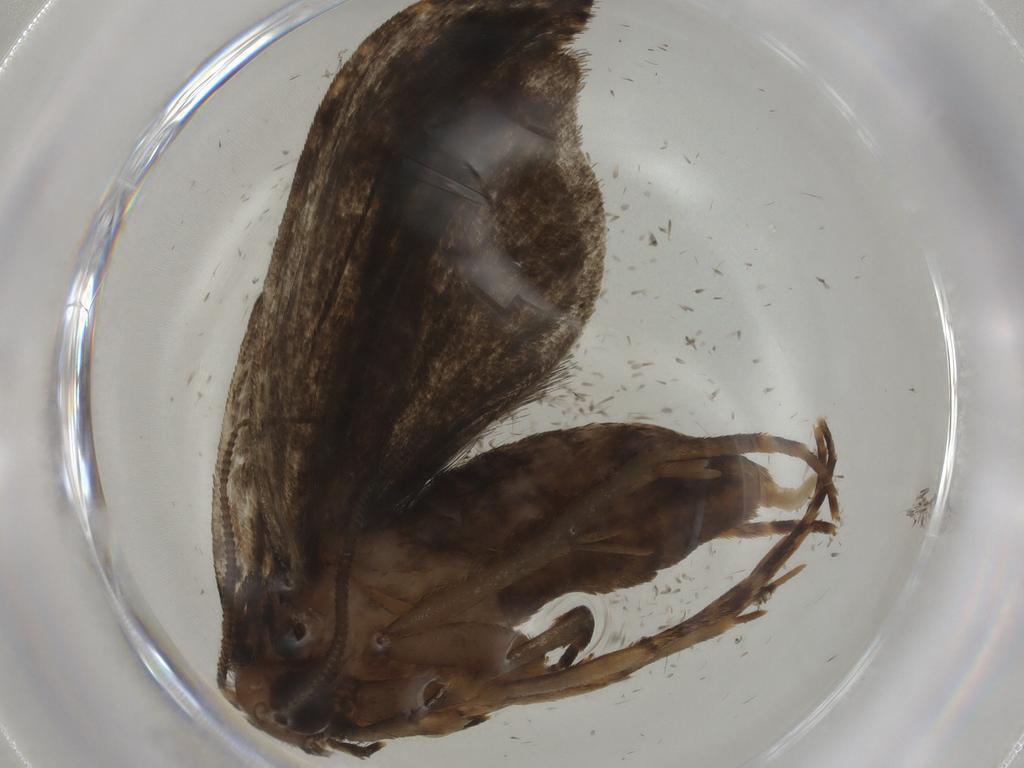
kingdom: Animalia
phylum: Arthropoda
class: Insecta
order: Lepidoptera
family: Tineidae
